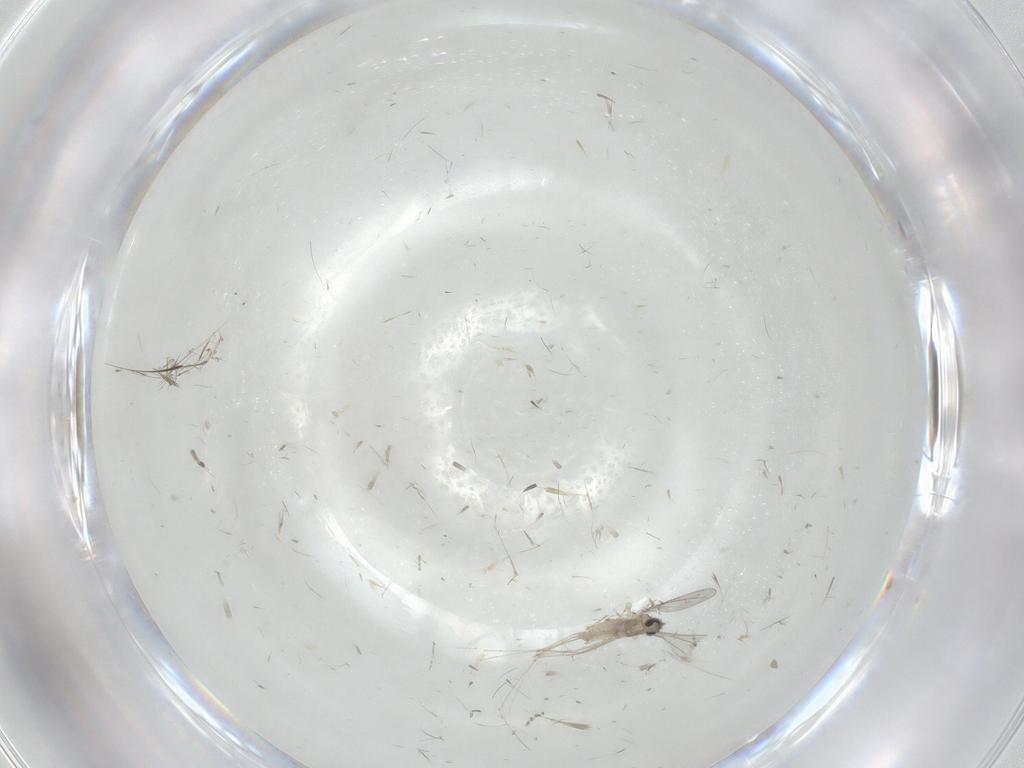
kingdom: Animalia
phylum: Arthropoda
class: Insecta
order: Diptera
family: Cecidomyiidae
